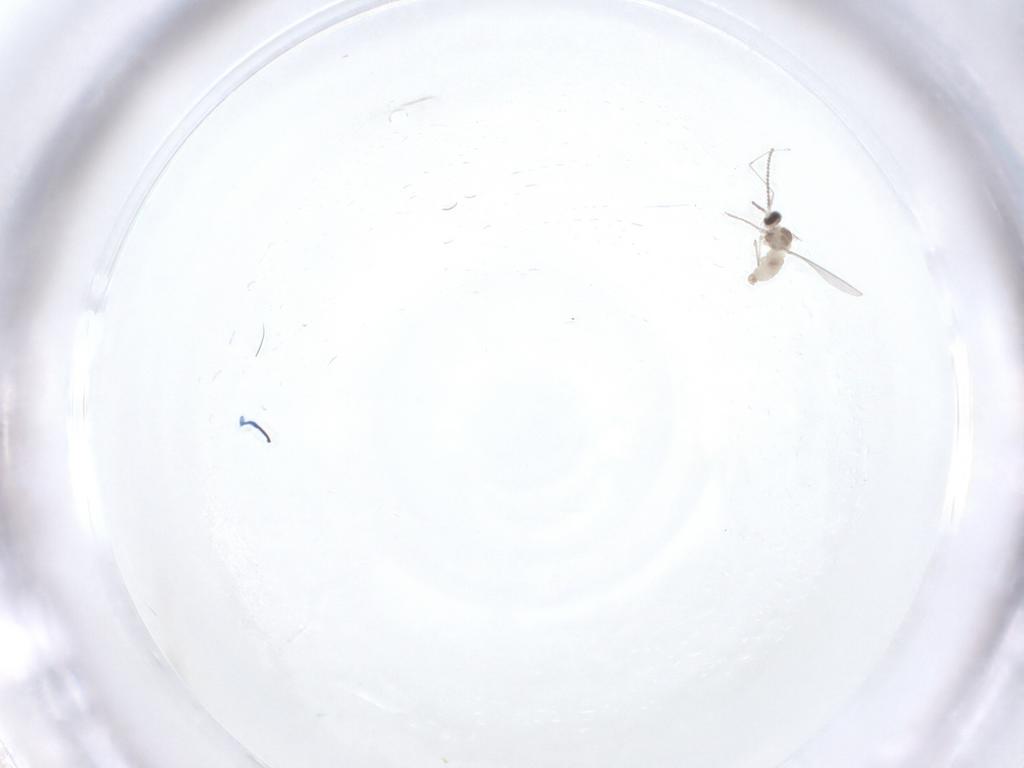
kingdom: Animalia
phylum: Arthropoda
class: Insecta
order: Diptera
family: Cecidomyiidae
